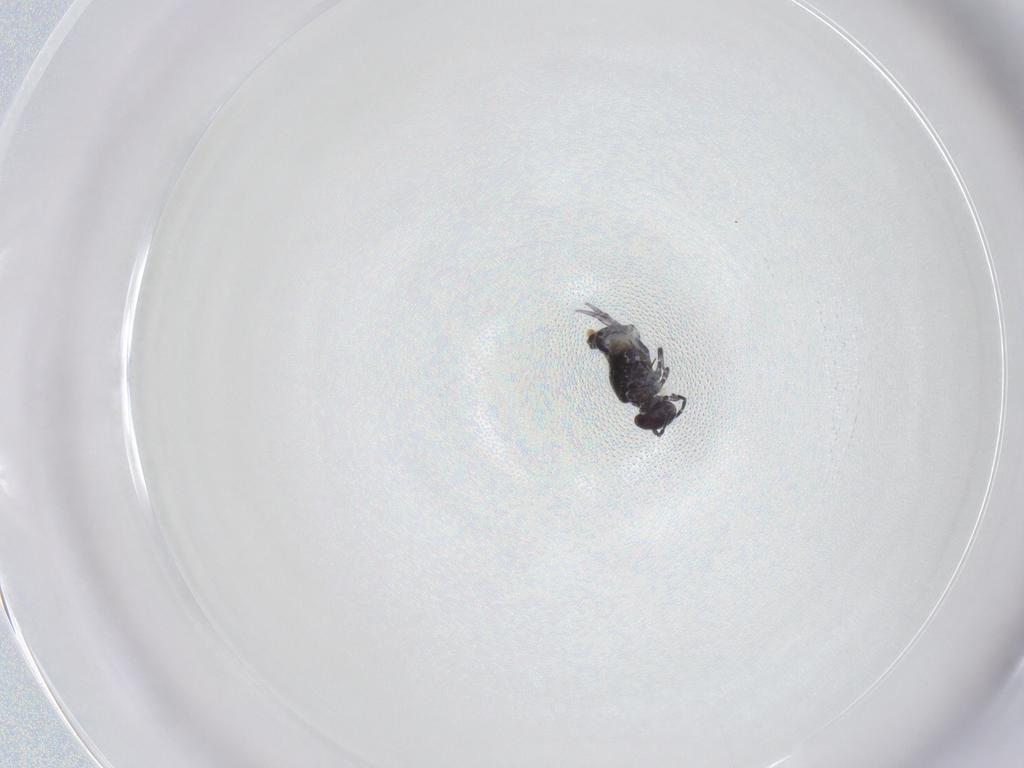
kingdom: Animalia
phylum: Arthropoda
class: Collembola
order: Symphypleona
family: Bourletiellidae
